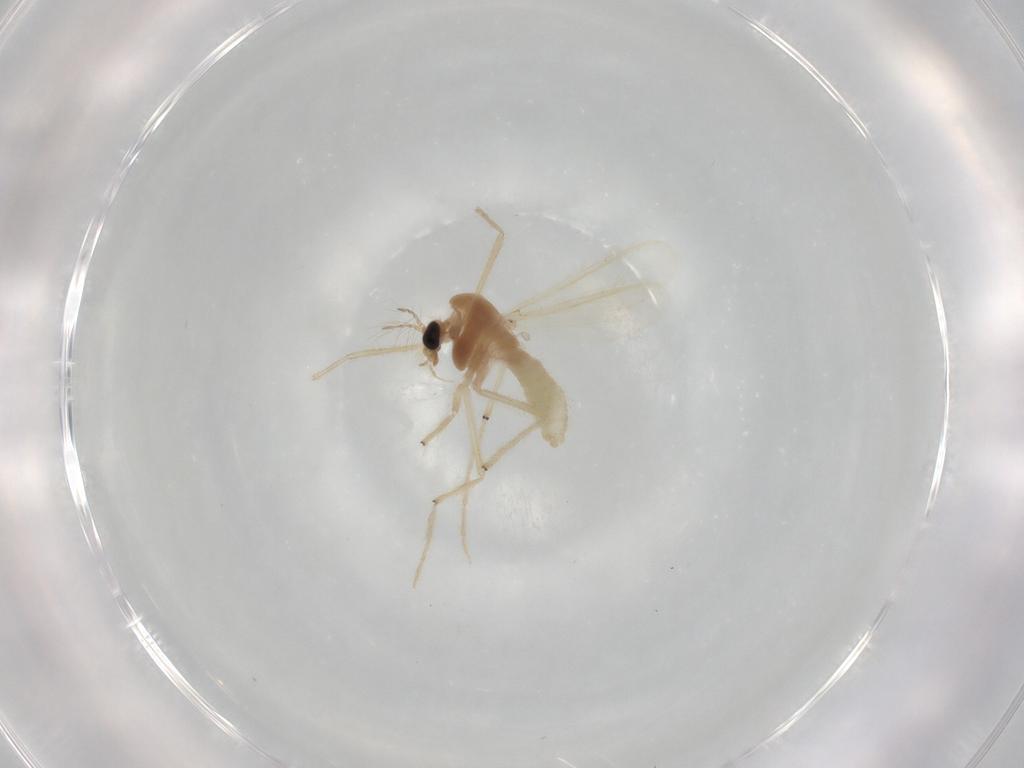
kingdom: Animalia
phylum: Arthropoda
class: Insecta
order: Diptera
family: Chironomidae
